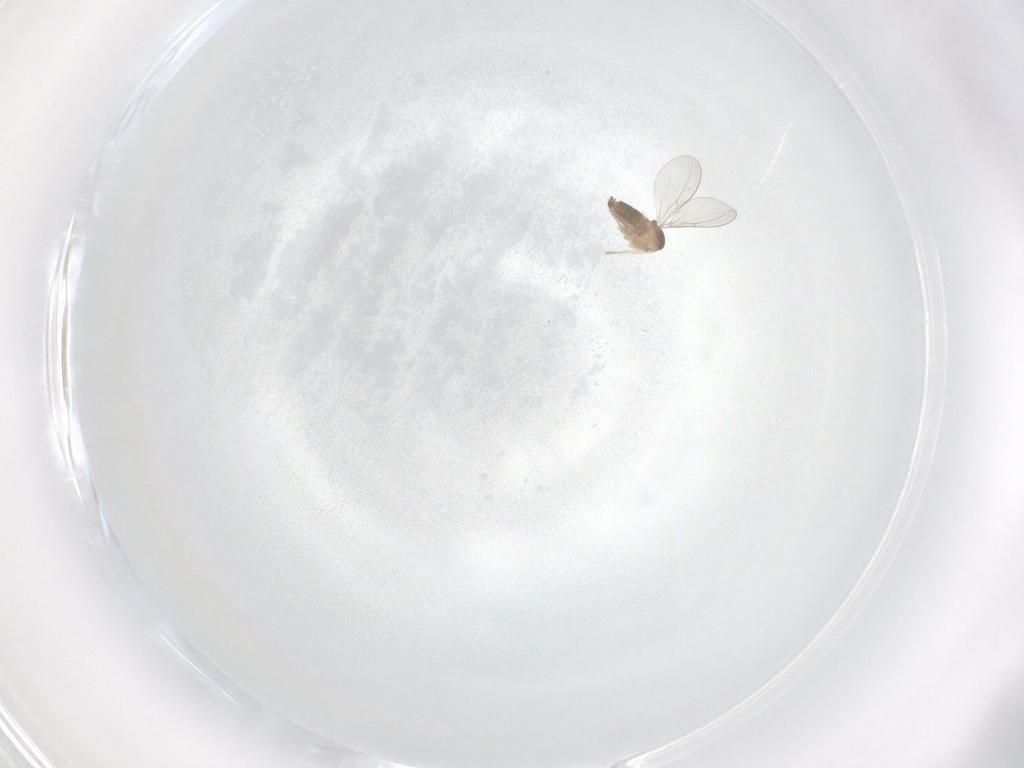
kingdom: Animalia
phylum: Arthropoda
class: Insecta
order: Diptera
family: Cecidomyiidae
